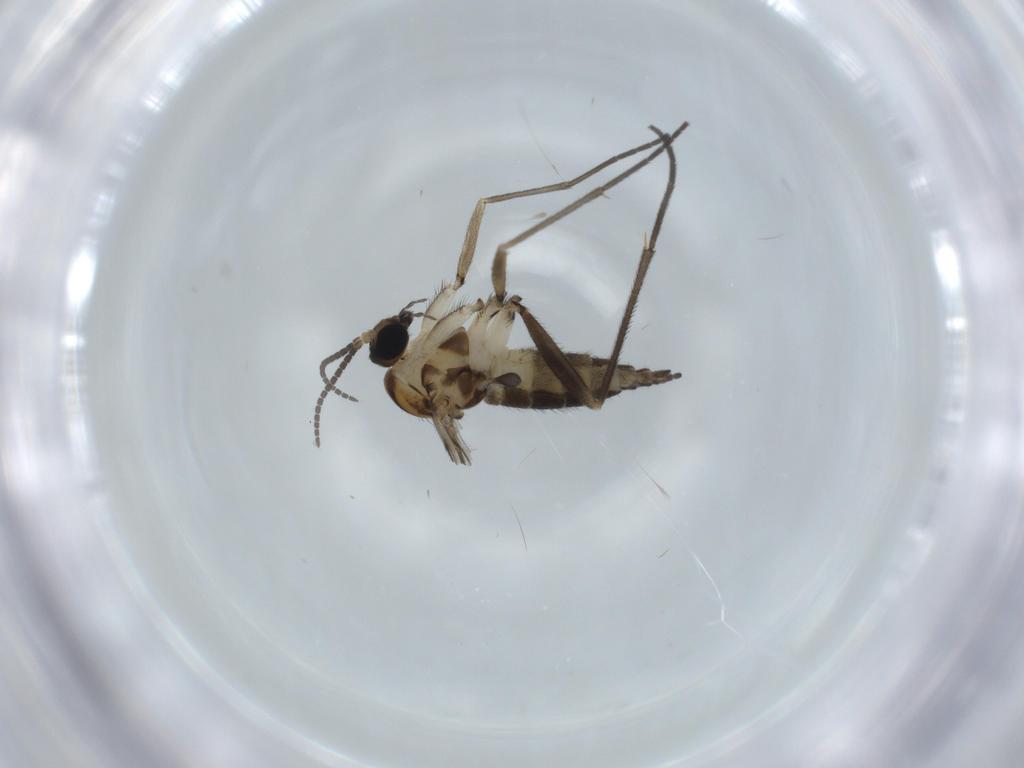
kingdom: Animalia
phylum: Arthropoda
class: Insecta
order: Diptera
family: Sciaridae
